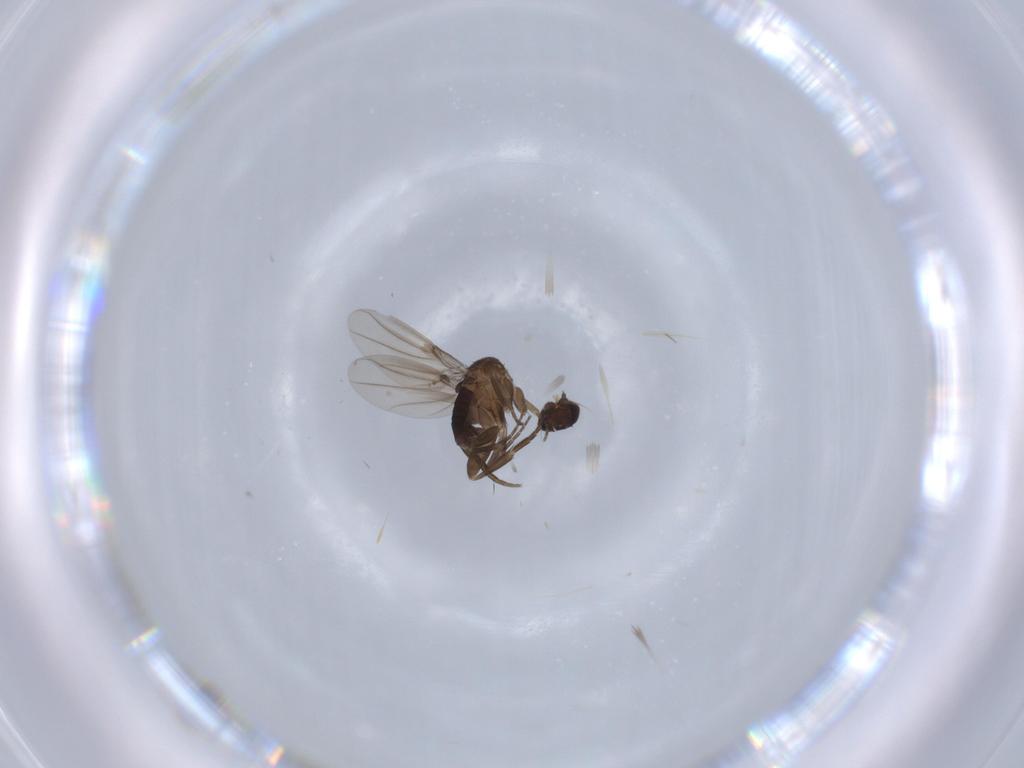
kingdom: Animalia
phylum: Arthropoda
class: Insecta
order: Diptera
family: Phoridae
